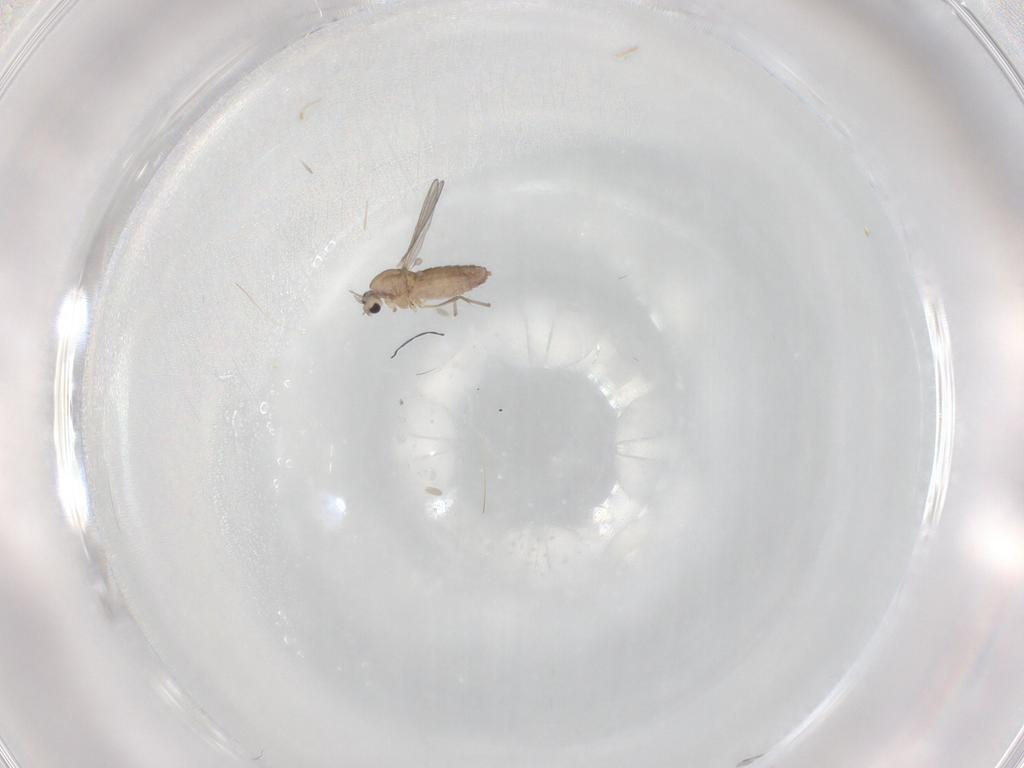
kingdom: Animalia
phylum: Arthropoda
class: Insecta
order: Diptera
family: Chironomidae
